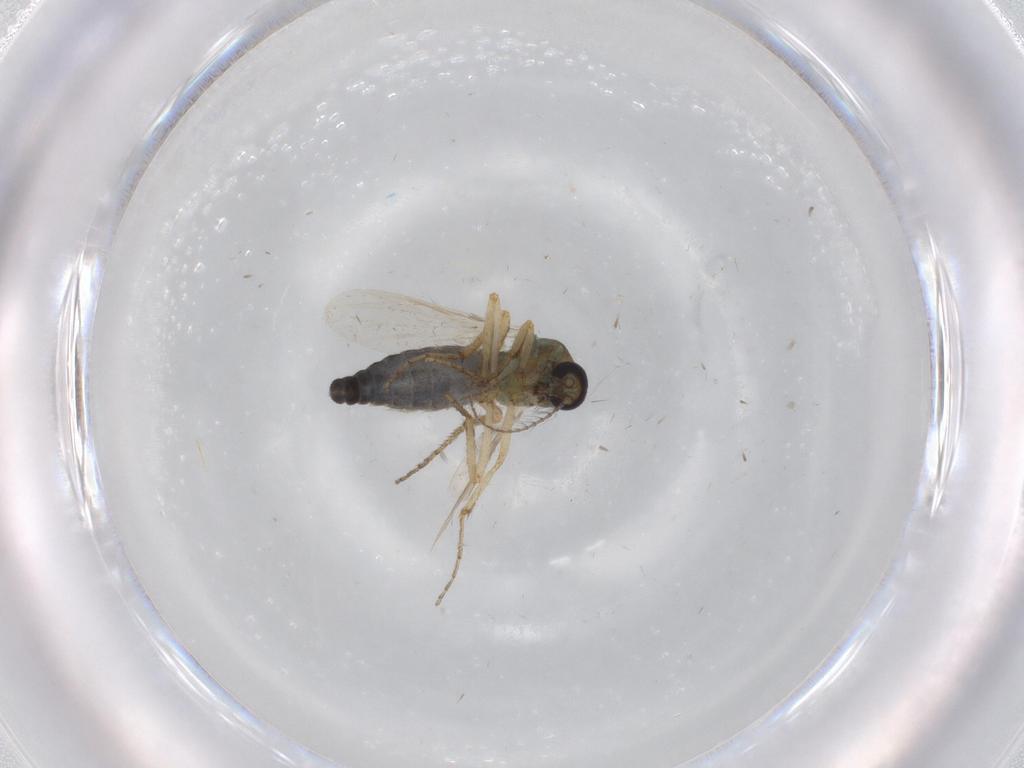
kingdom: Animalia
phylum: Arthropoda
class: Insecta
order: Diptera
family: Ceratopogonidae
